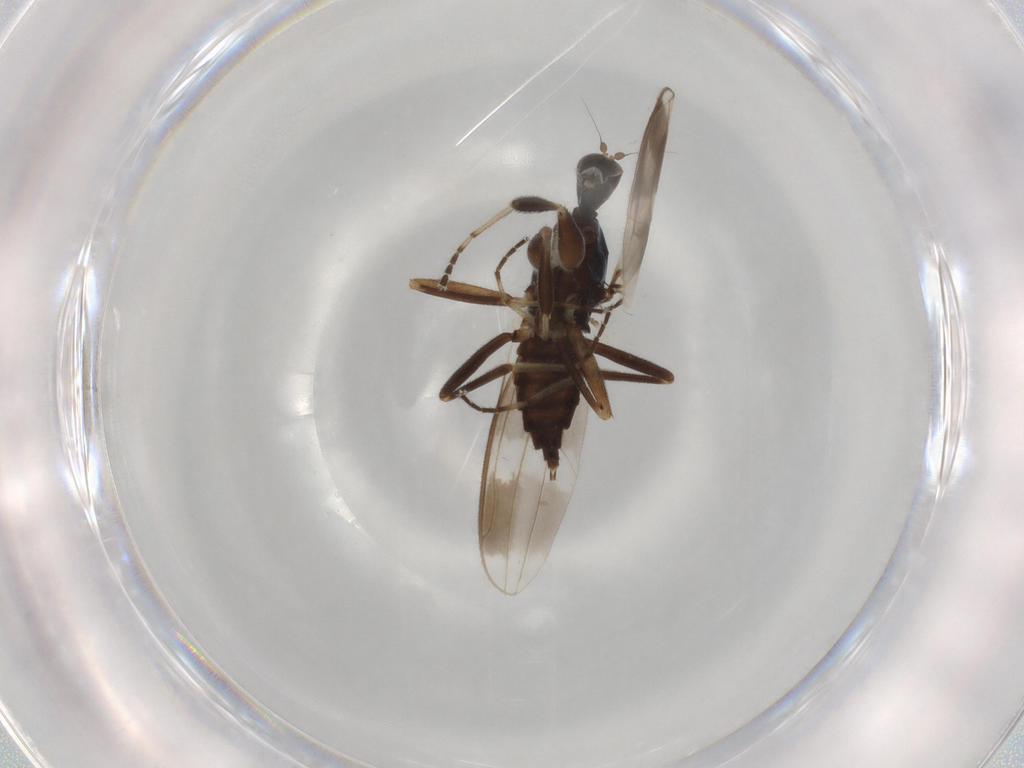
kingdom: Animalia
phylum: Arthropoda
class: Insecta
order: Diptera
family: Hybotidae
